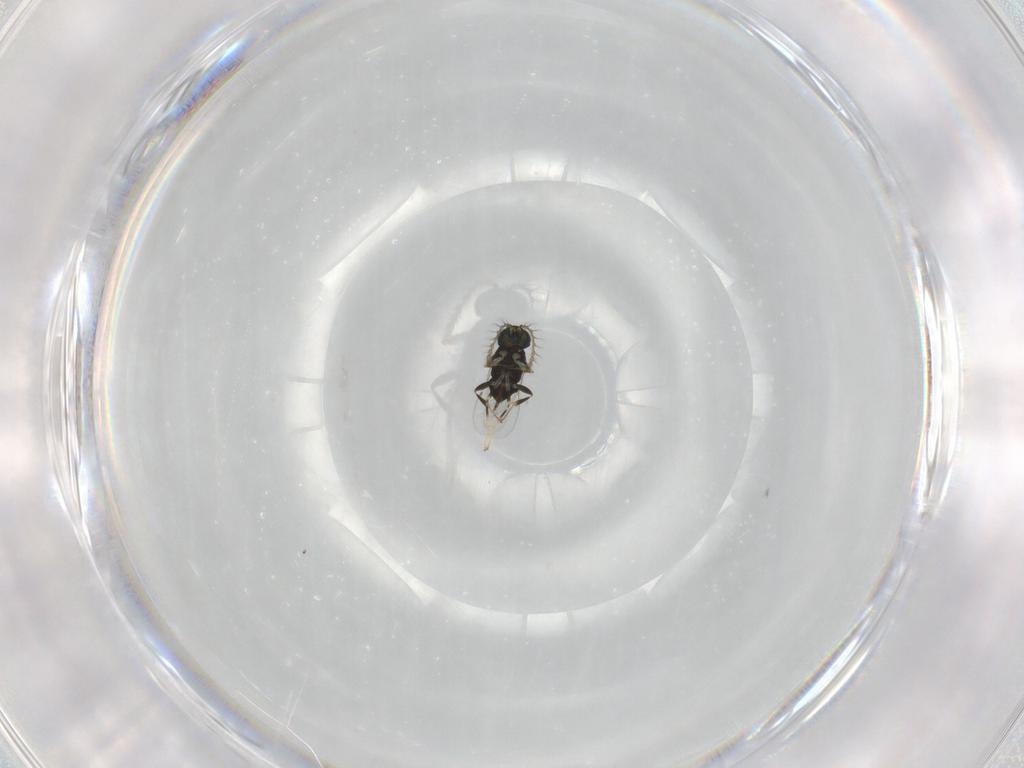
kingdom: Animalia
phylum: Arthropoda
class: Insecta
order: Hymenoptera
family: Encyrtidae
